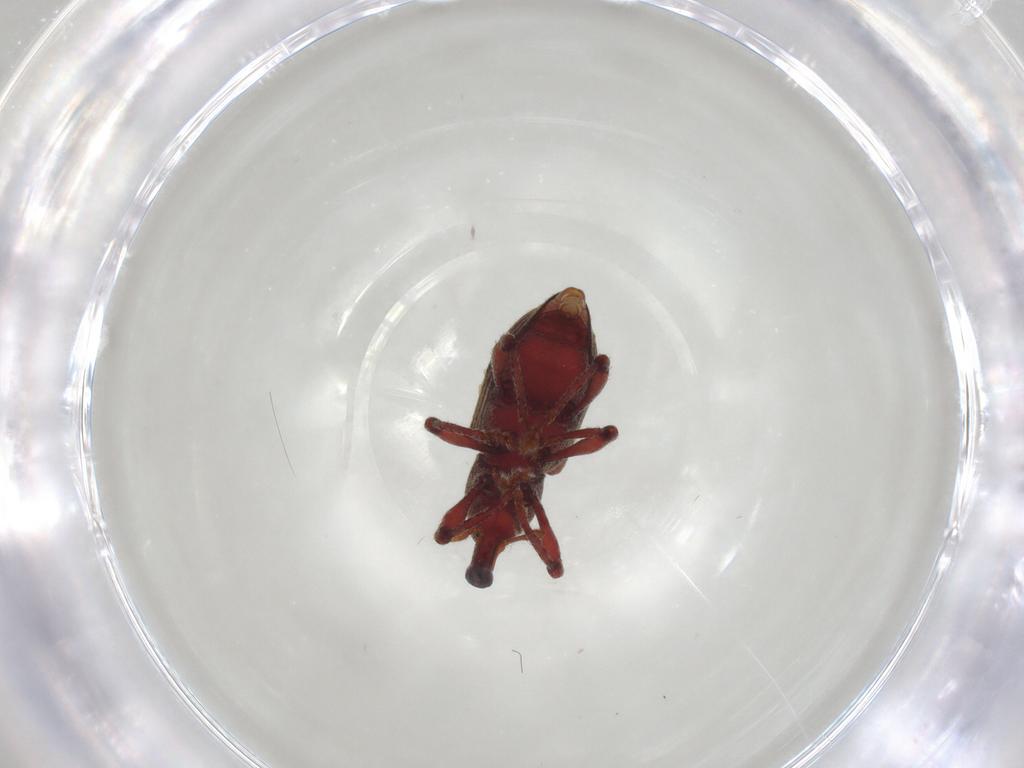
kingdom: Animalia
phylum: Arthropoda
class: Insecta
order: Coleoptera
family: Curculionidae
